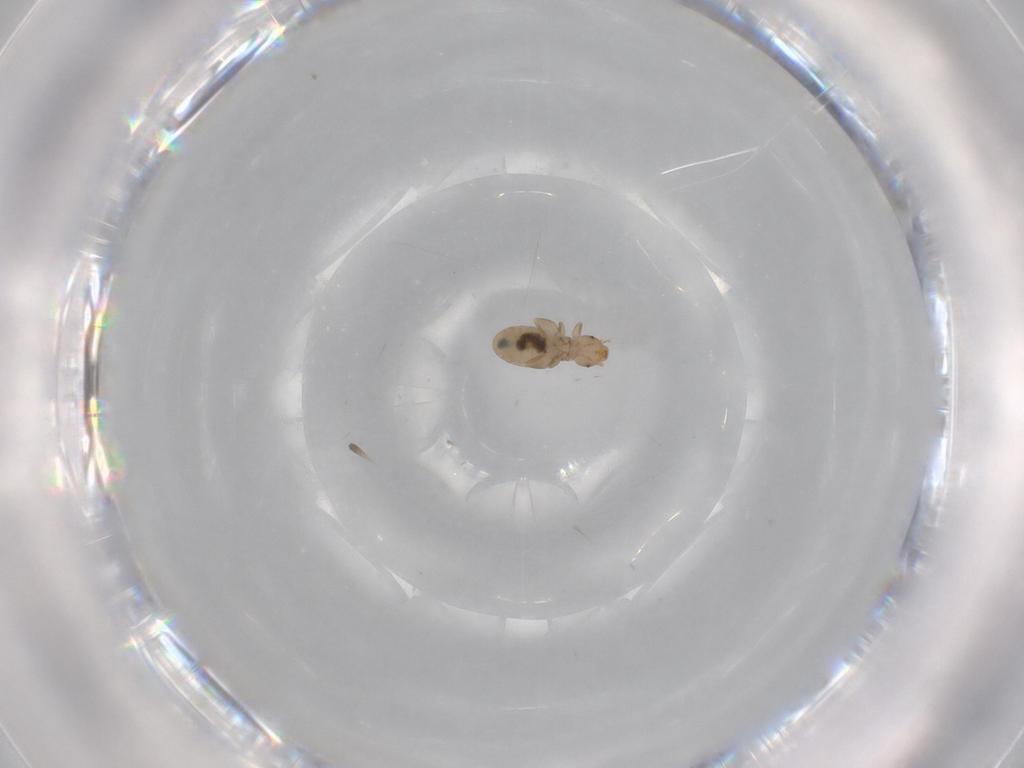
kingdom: Animalia
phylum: Arthropoda
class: Insecta
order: Psocodea
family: Liposcelididae
